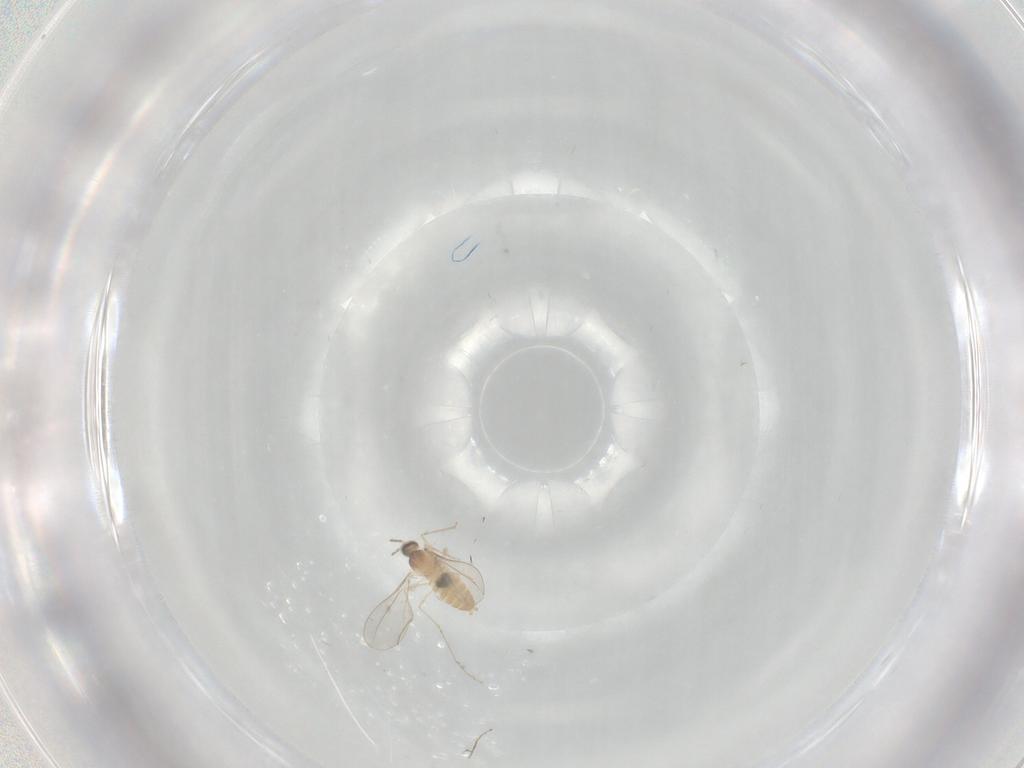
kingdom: Animalia
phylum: Arthropoda
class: Insecta
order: Diptera
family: Cecidomyiidae
